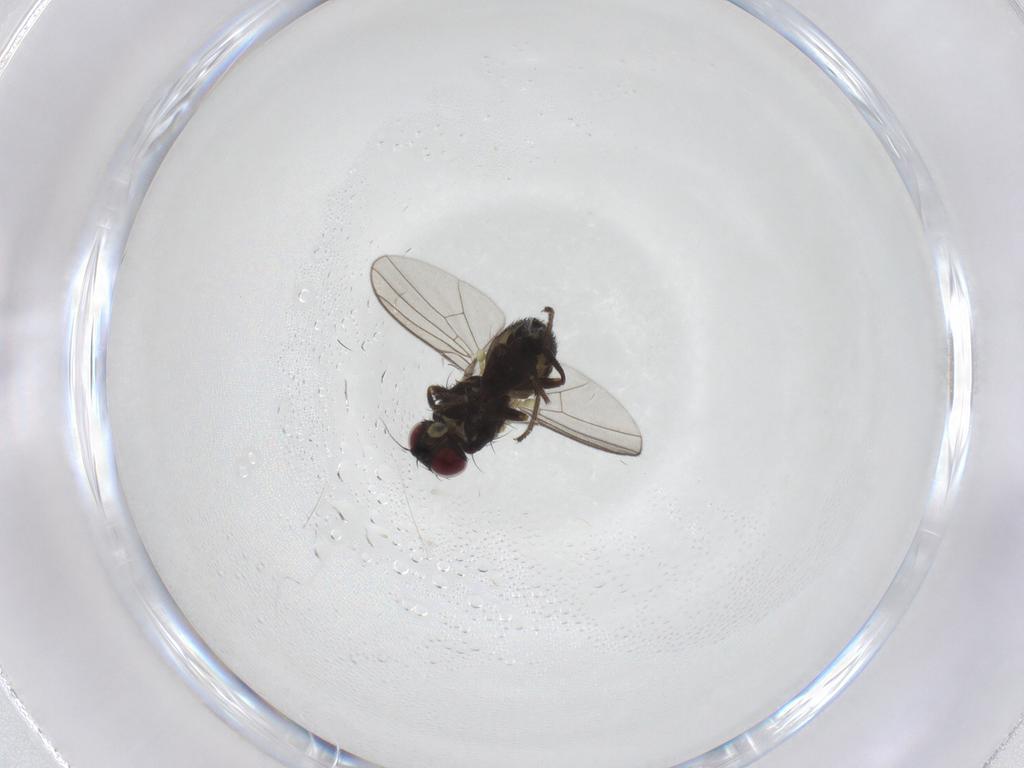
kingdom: Animalia
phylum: Arthropoda
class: Insecta
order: Diptera
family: Agromyzidae
